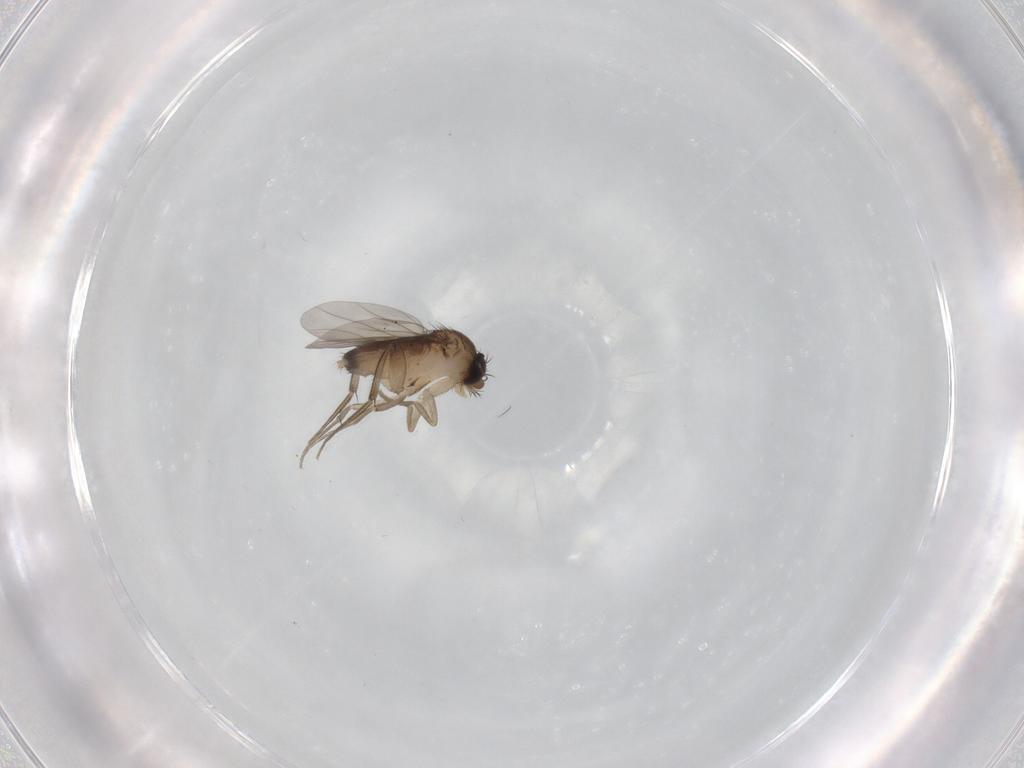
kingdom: Animalia
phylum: Arthropoda
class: Insecta
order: Diptera
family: Phoridae
